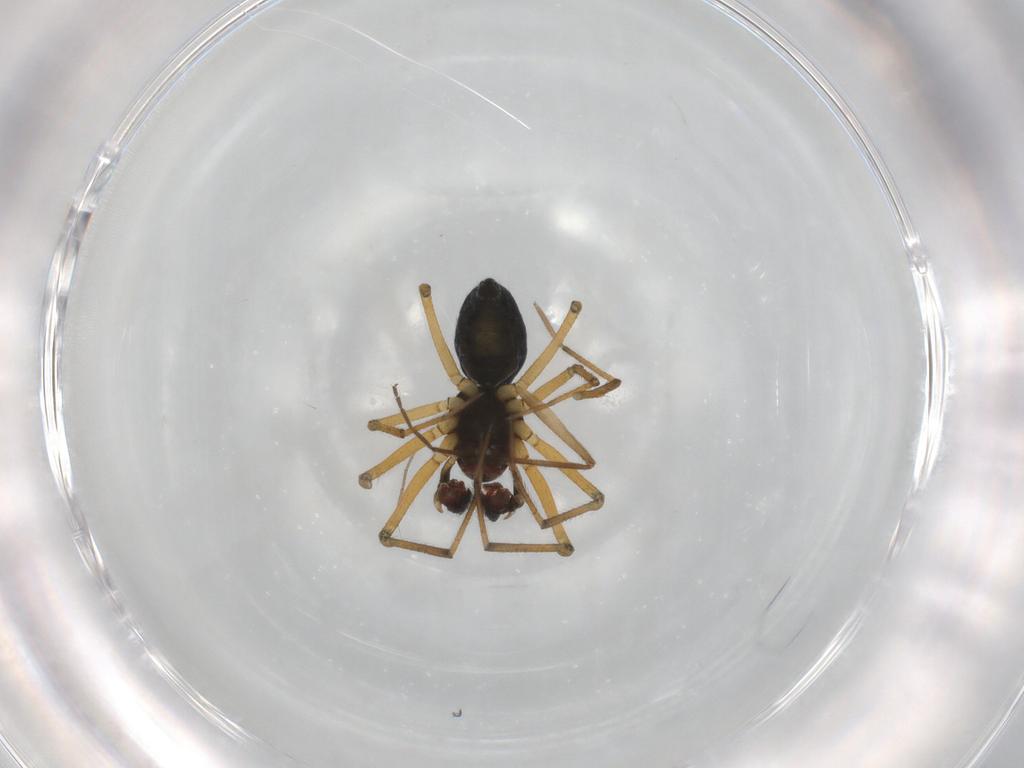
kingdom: Animalia
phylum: Arthropoda
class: Arachnida
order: Araneae
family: Linyphiidae
